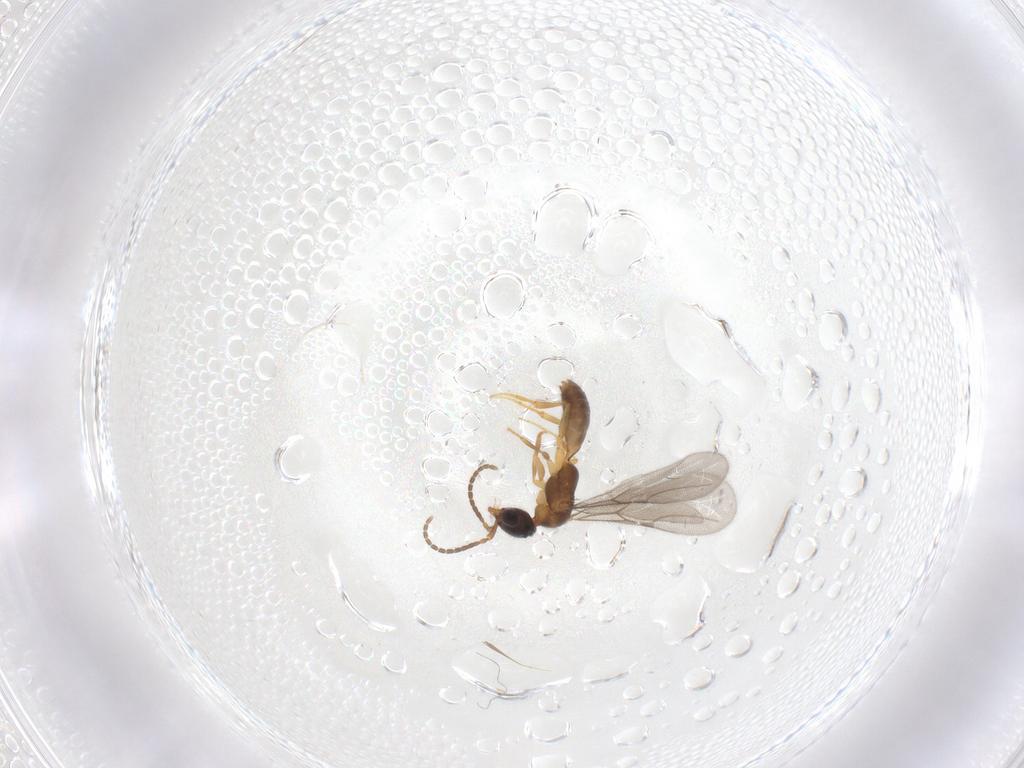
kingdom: Animalia
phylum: Arthropoda
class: Insecta
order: Hymenoptera
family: Bethylidae
